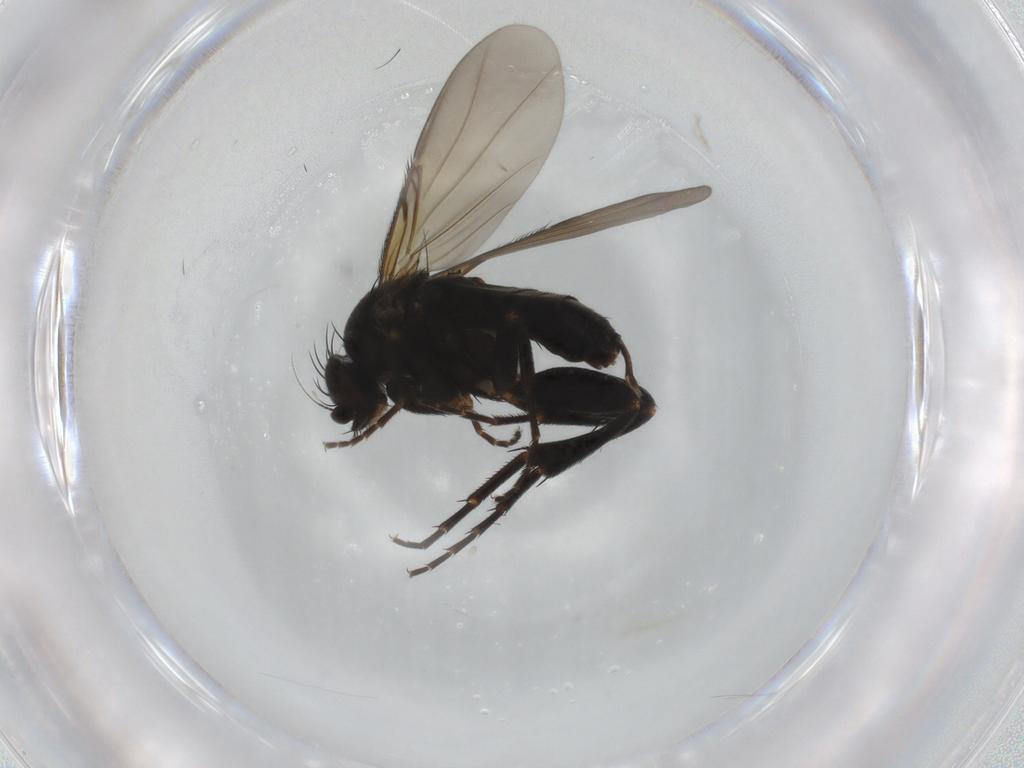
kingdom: Animalia
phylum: Arthropoda
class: Insecta
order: Diptera
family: Phoridae
